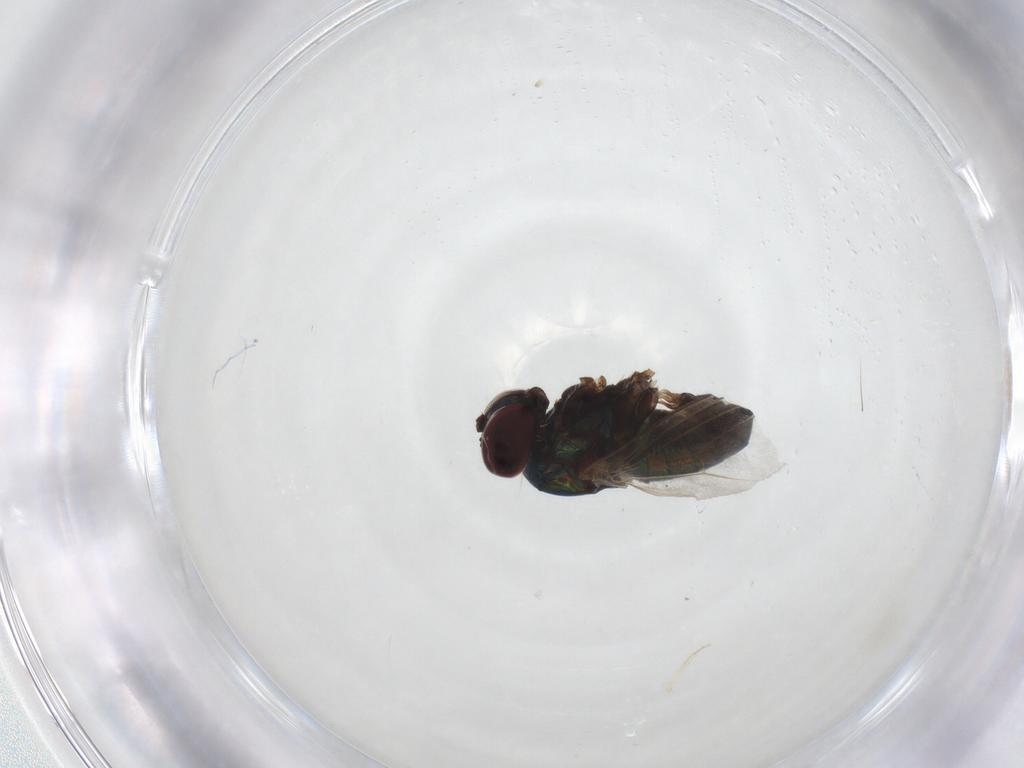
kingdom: Animalia
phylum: Arthropoda
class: Insecta
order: Diptera
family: Dolichopodidae
